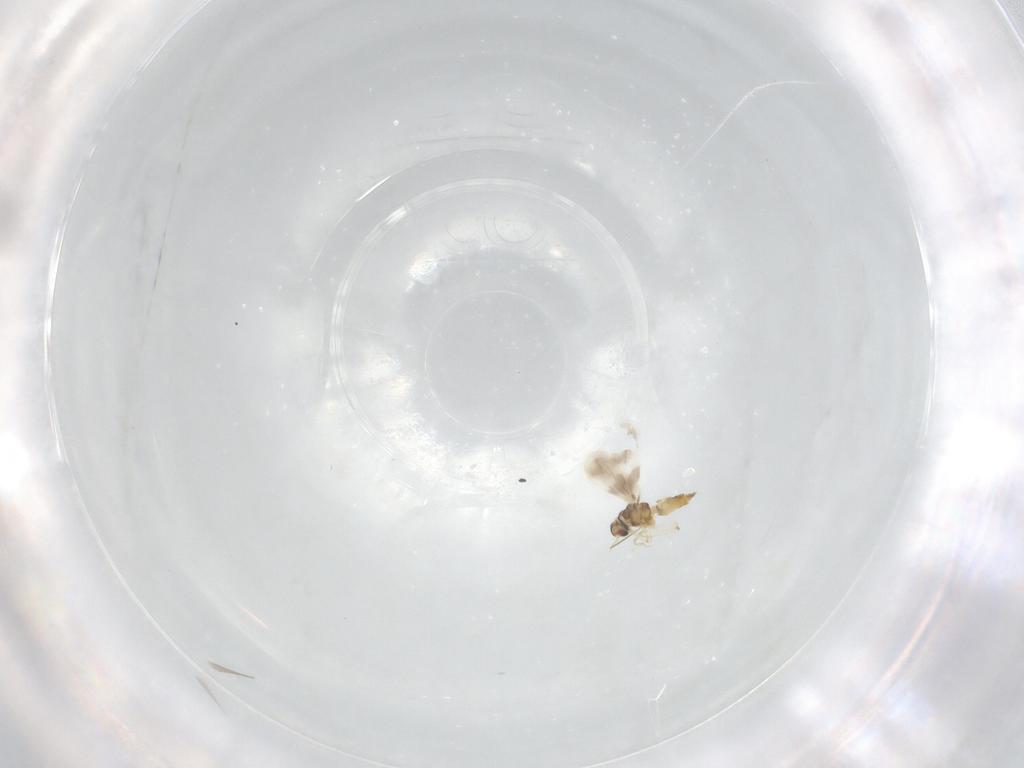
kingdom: Animalia
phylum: Arthropoda
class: Insecta
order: Hemiptera
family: Aleyrodidae
